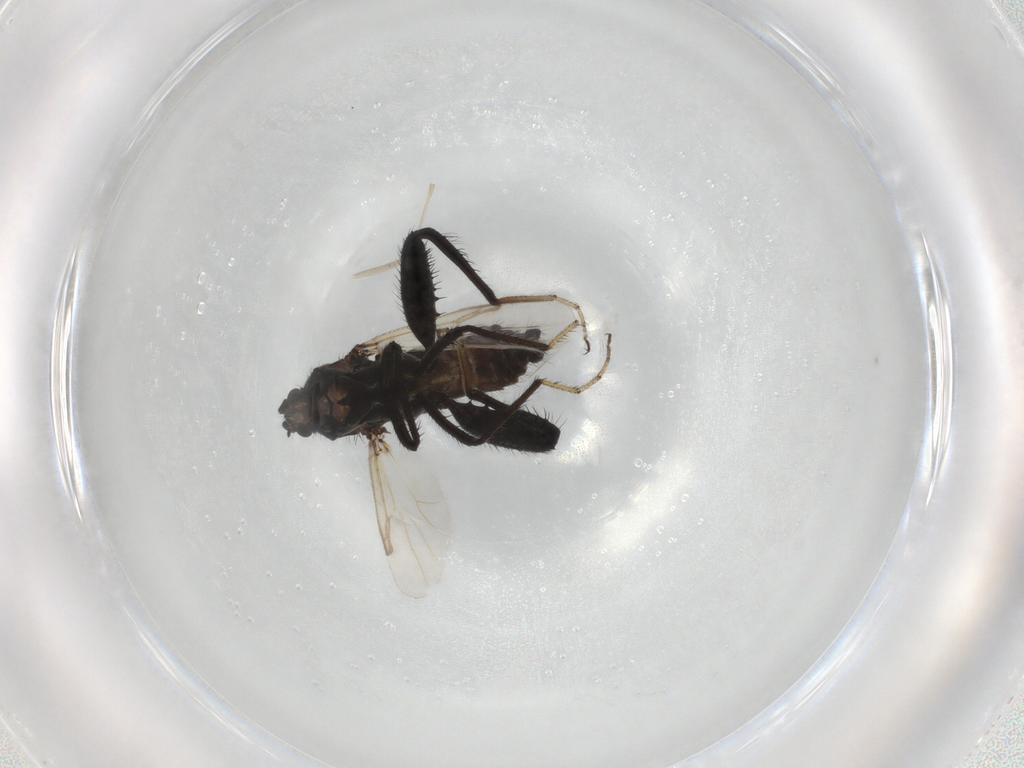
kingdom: Animalia
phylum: Arthropoda
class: Insecta
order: Diptera
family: Ceratopogonidae
